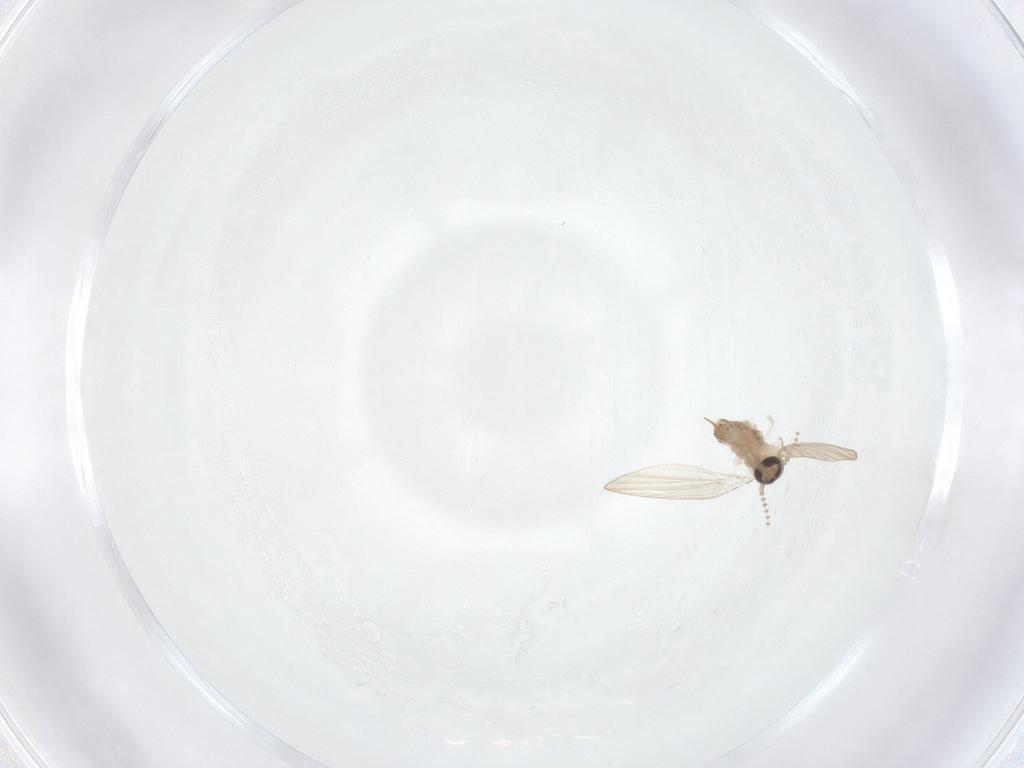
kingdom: Animalia
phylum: Arthropoda
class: Insecta
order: Diptera
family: Psychodidae
